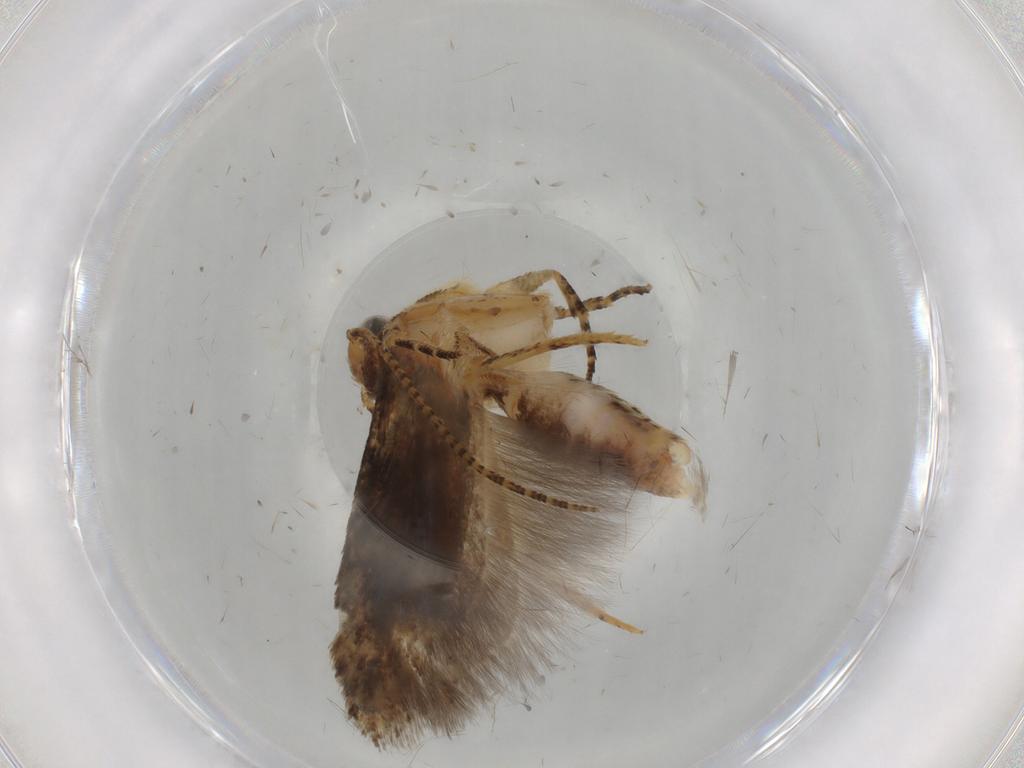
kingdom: Animalia
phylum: Arthropoda
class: Insecta
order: Lepidoptera
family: Gelechiidae
